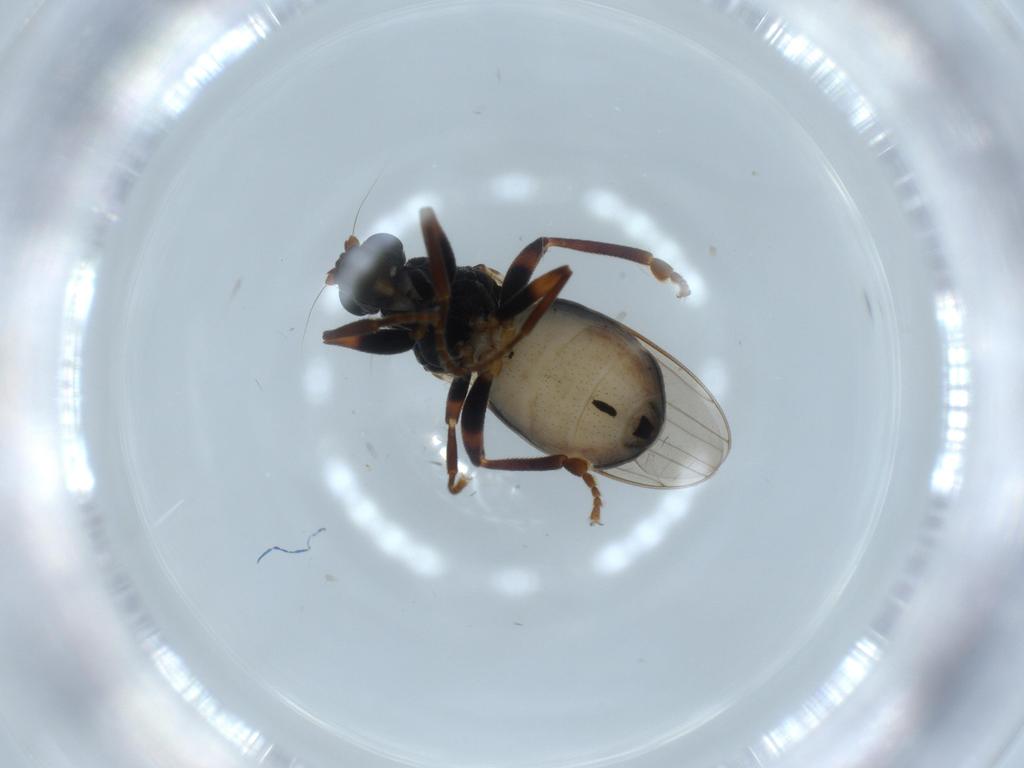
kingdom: Animalia
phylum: Arthropoda
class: Insecta
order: Diptera
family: Sphaeroceridae
